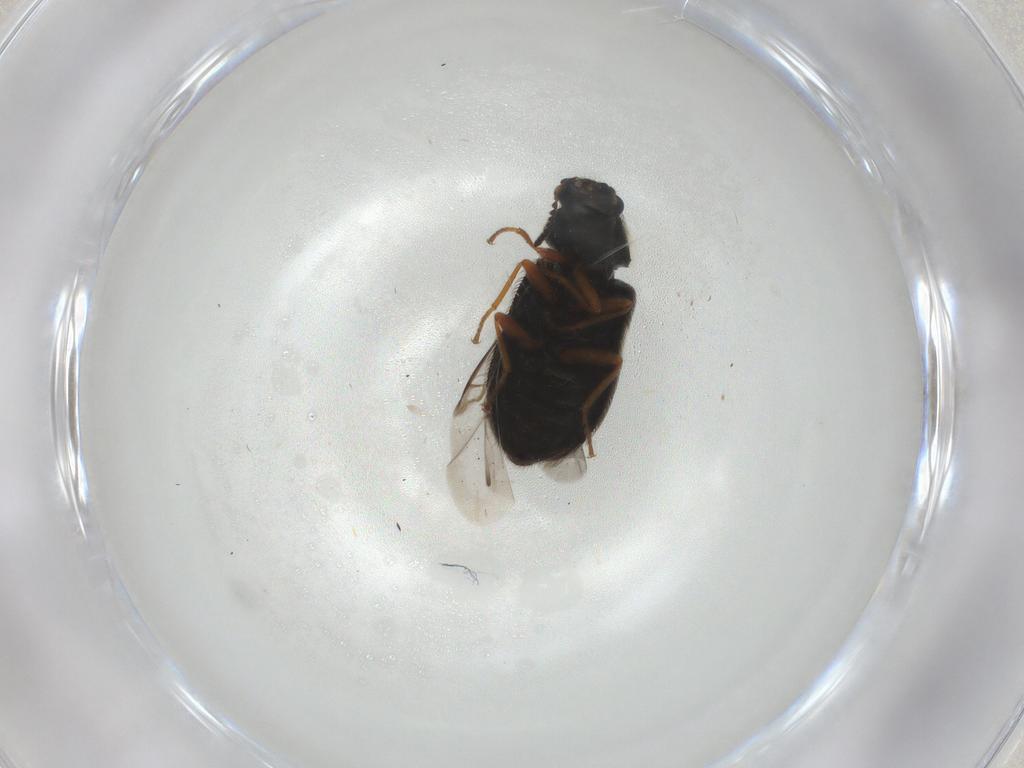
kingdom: Animalia
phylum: Arthropoda
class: Insecta
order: Coleoptera
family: Melyridae
